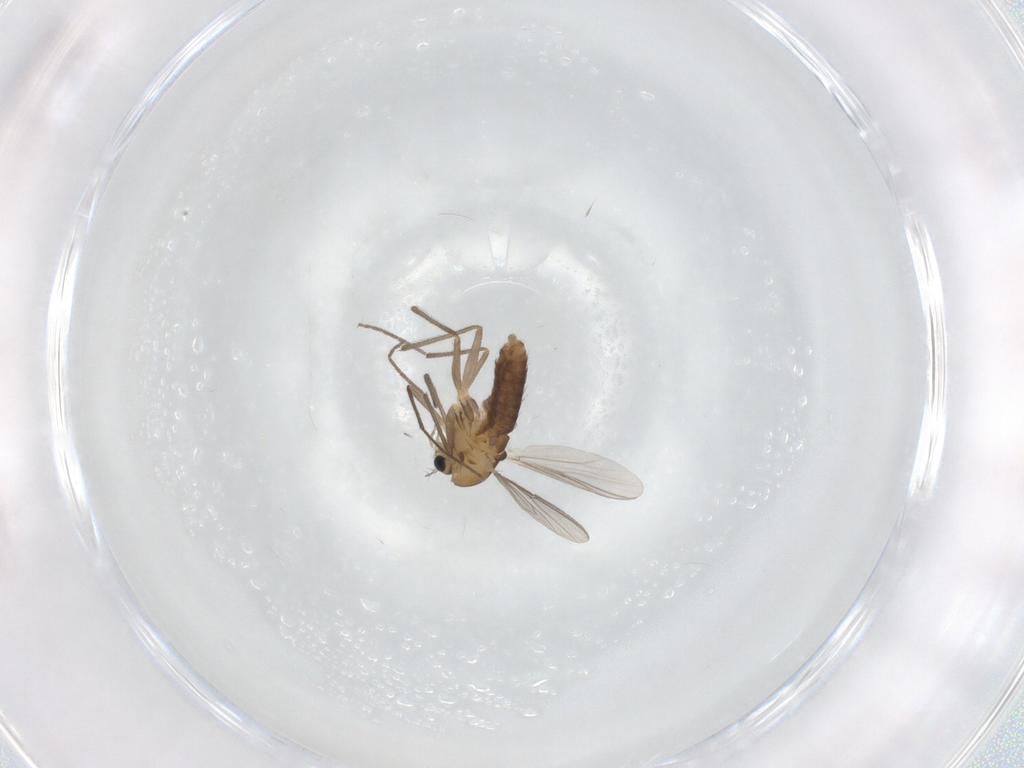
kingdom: Animalia
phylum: Arthropoda
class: Insecta
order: Diptera
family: Chironomidae
